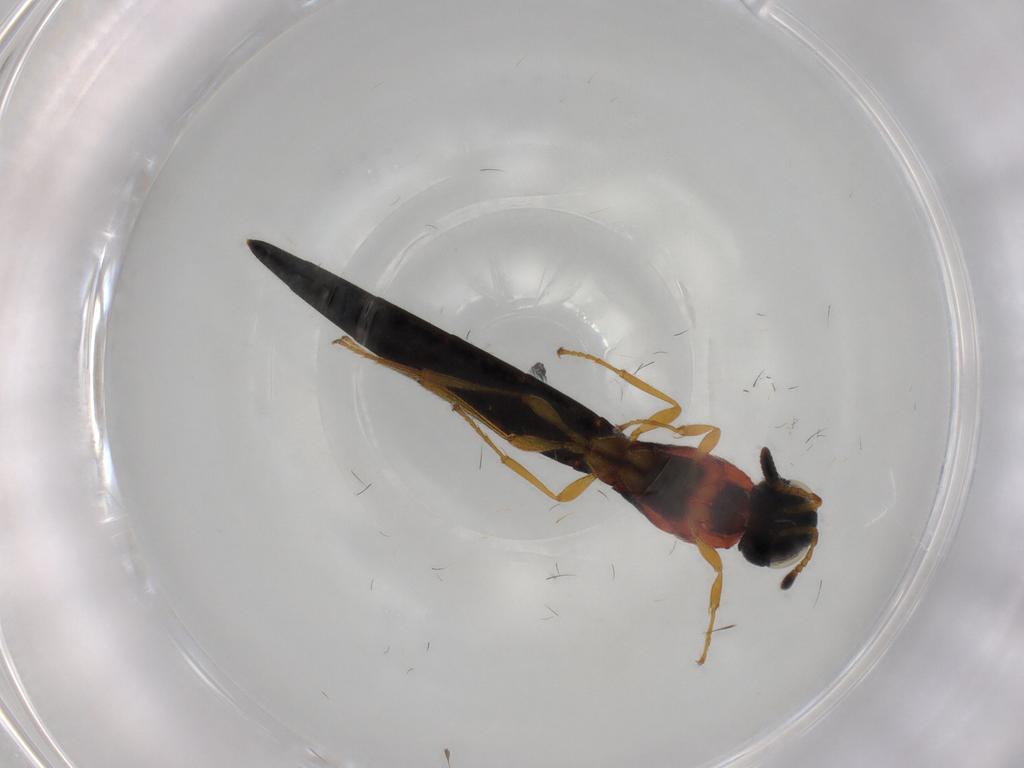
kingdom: Animalia
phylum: Arthropoda
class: Insecta
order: Hymenoptera
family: Scelionidae
